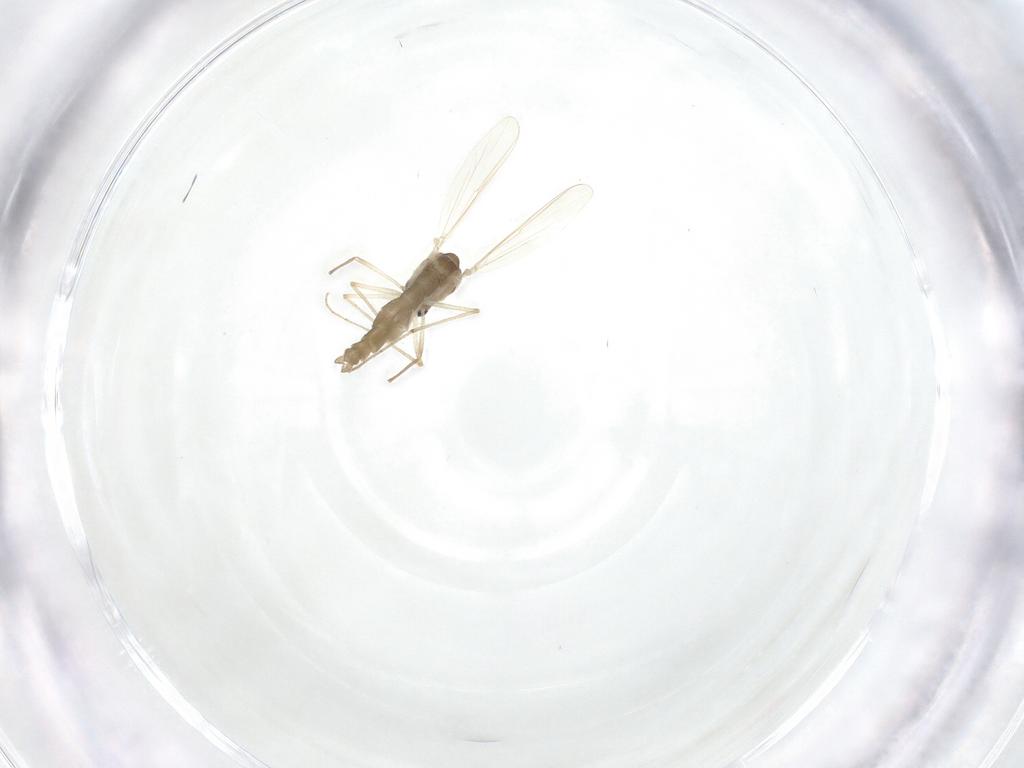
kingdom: Animalia
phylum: Arthropoda
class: Insecta
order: Diptera
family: Chironomidae
